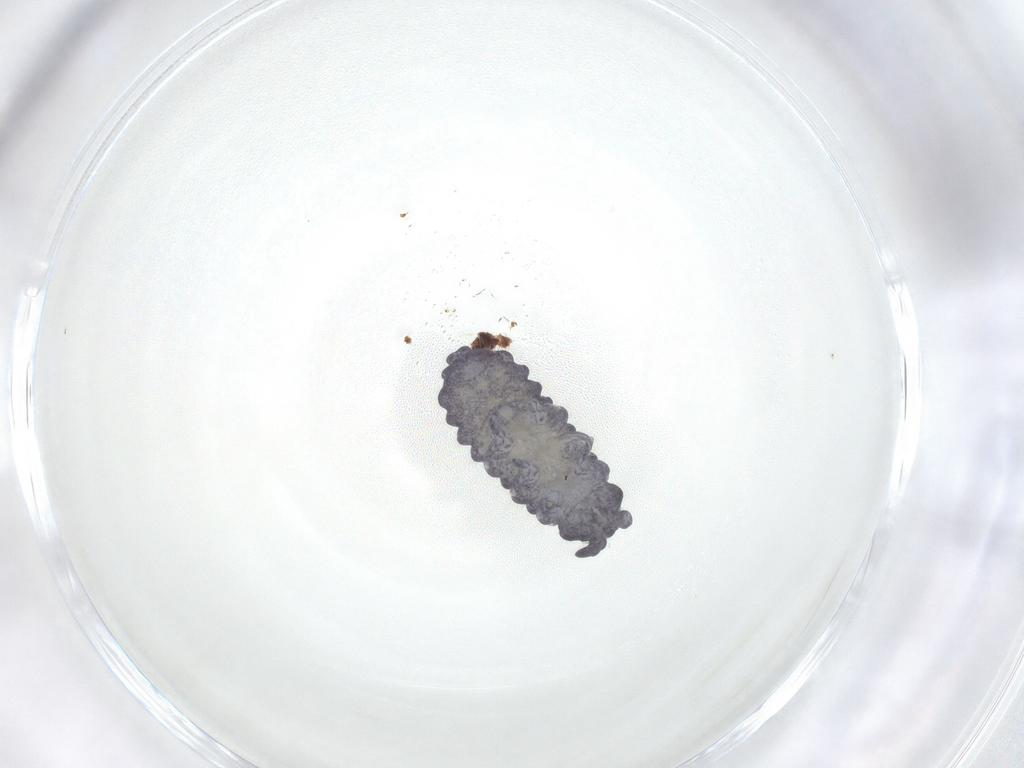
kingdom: Animalia
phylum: Arthropoda
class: Collembola
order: Poduromorpha
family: Neanuridae
